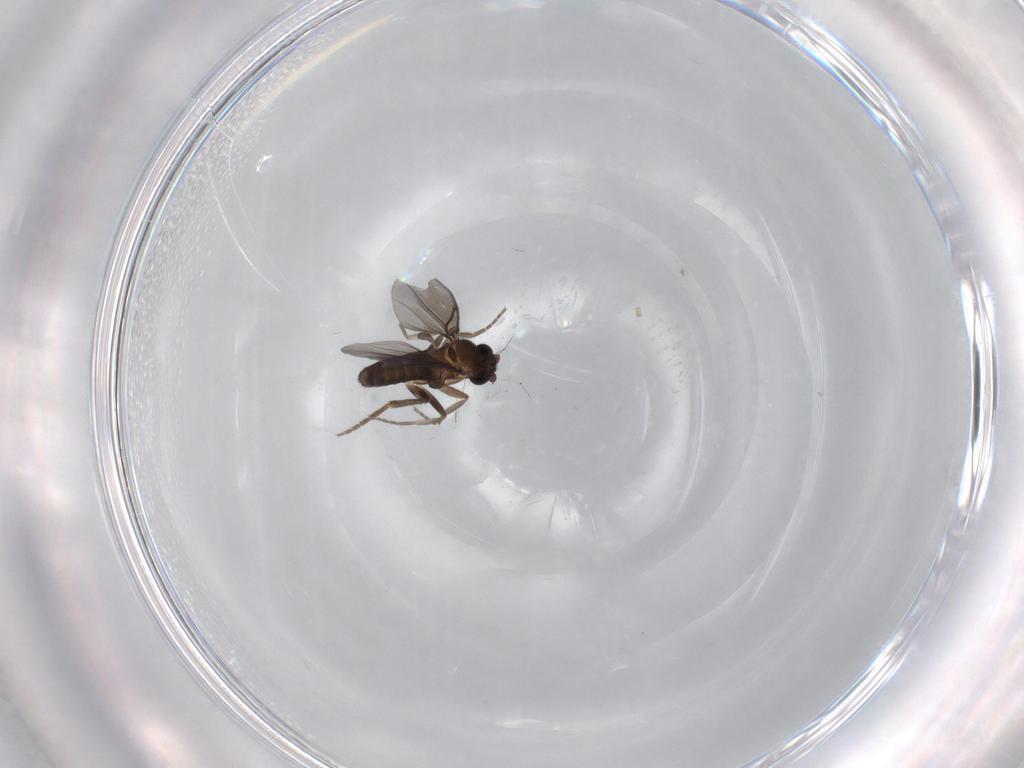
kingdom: Animalia
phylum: Arthropoda
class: Insecta
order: Diptera
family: Phoridae
